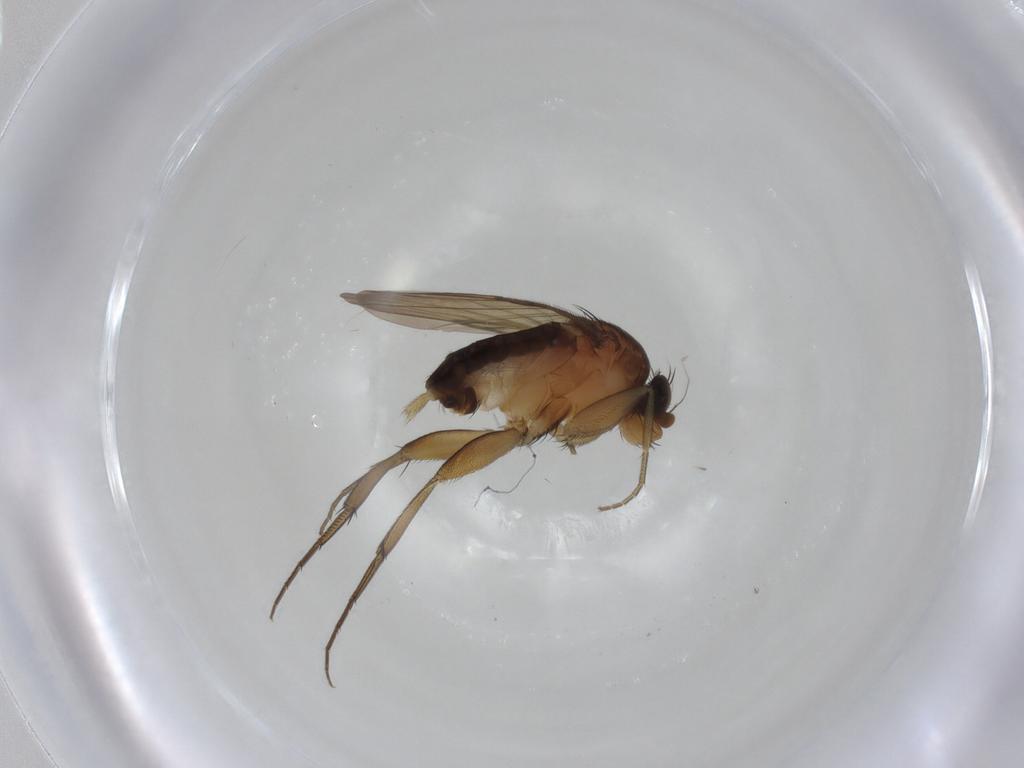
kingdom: Animalia
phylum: Arthropoda
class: Insecta
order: Diptera
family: Phoridae
